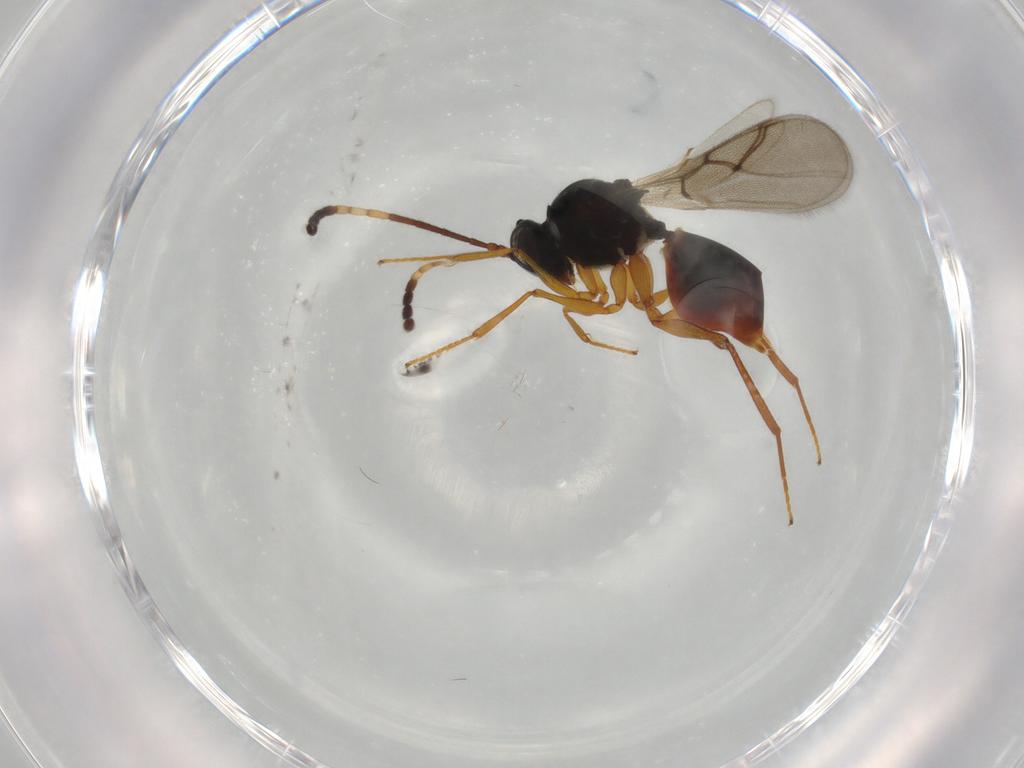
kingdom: Animalia
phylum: Arthropoda
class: Insecta
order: Hymenoptera
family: Figitidae
